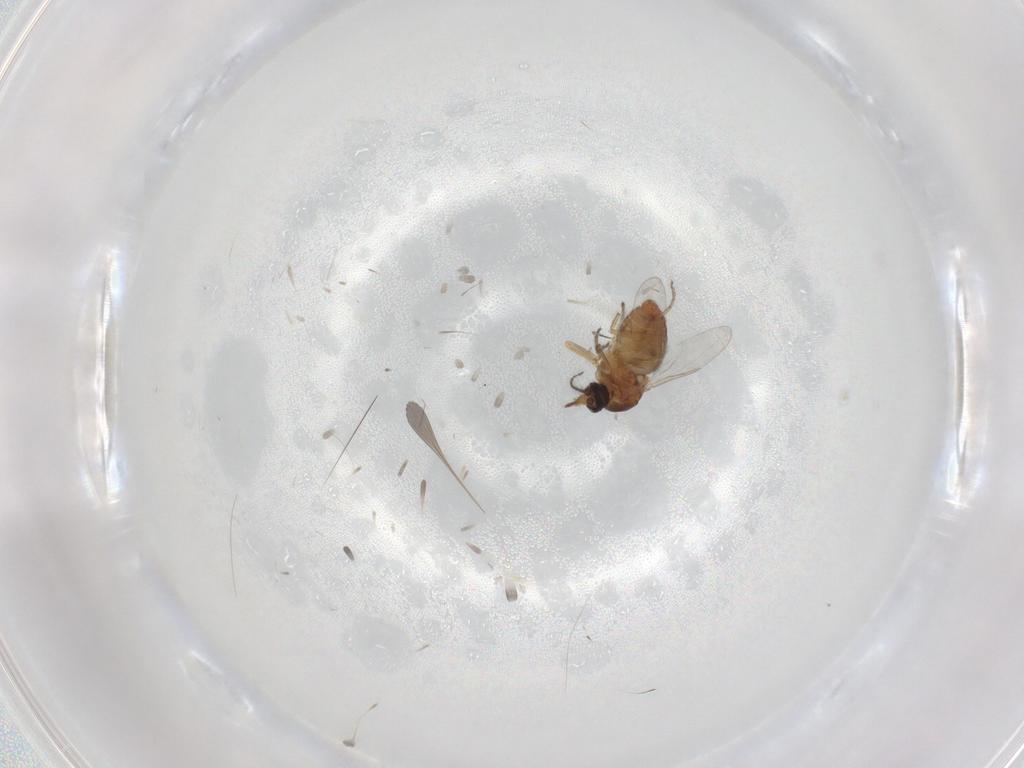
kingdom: Animalia
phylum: Arthropoda
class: Insecta
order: Diptera
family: Ceratopogonidae
